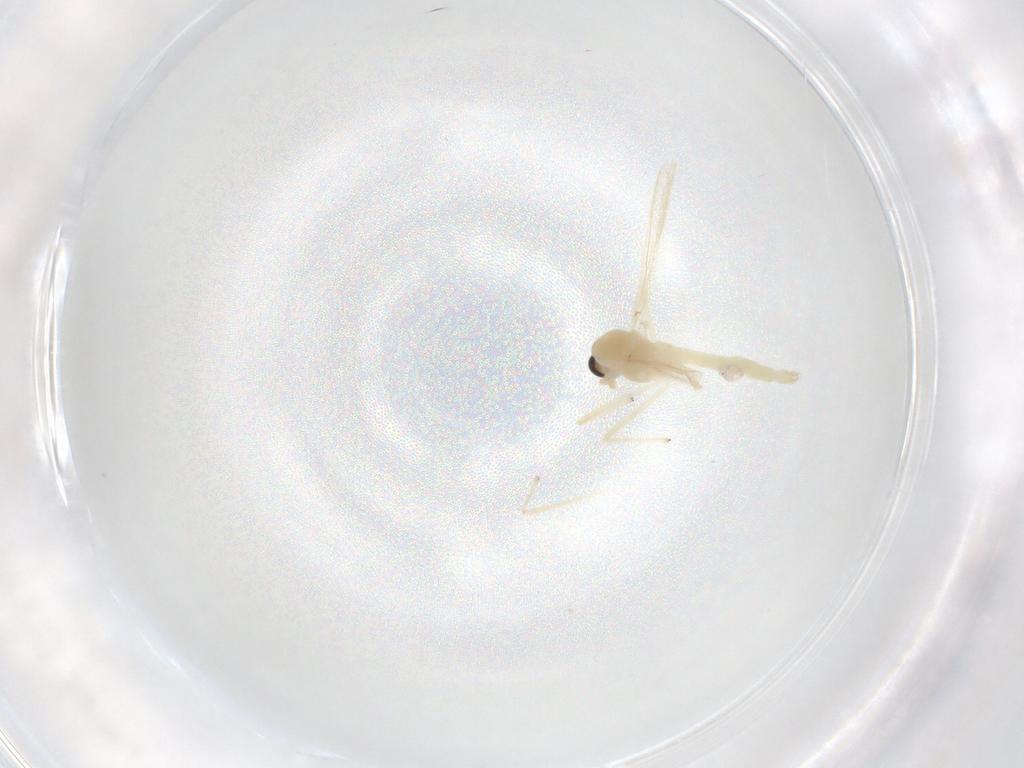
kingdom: Animalia
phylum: Arthropoda
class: Insecta
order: Diptera
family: Chironomidae
